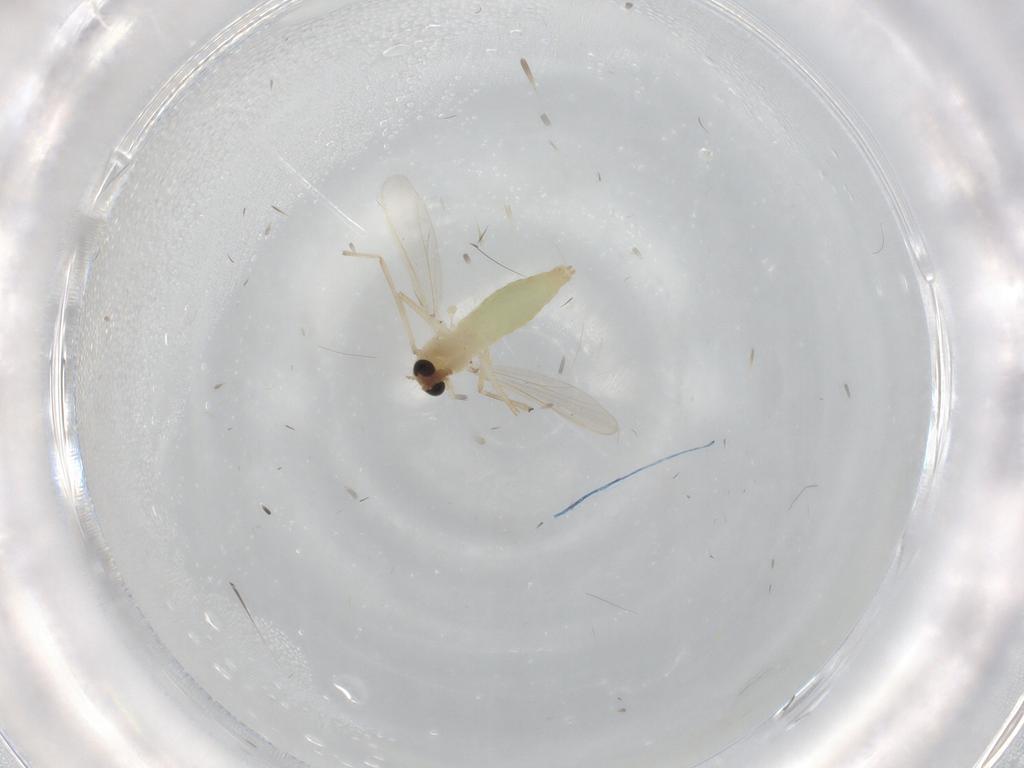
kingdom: Animalia
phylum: Arthropoda
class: Insecta
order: Diptera
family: Chironomidae
